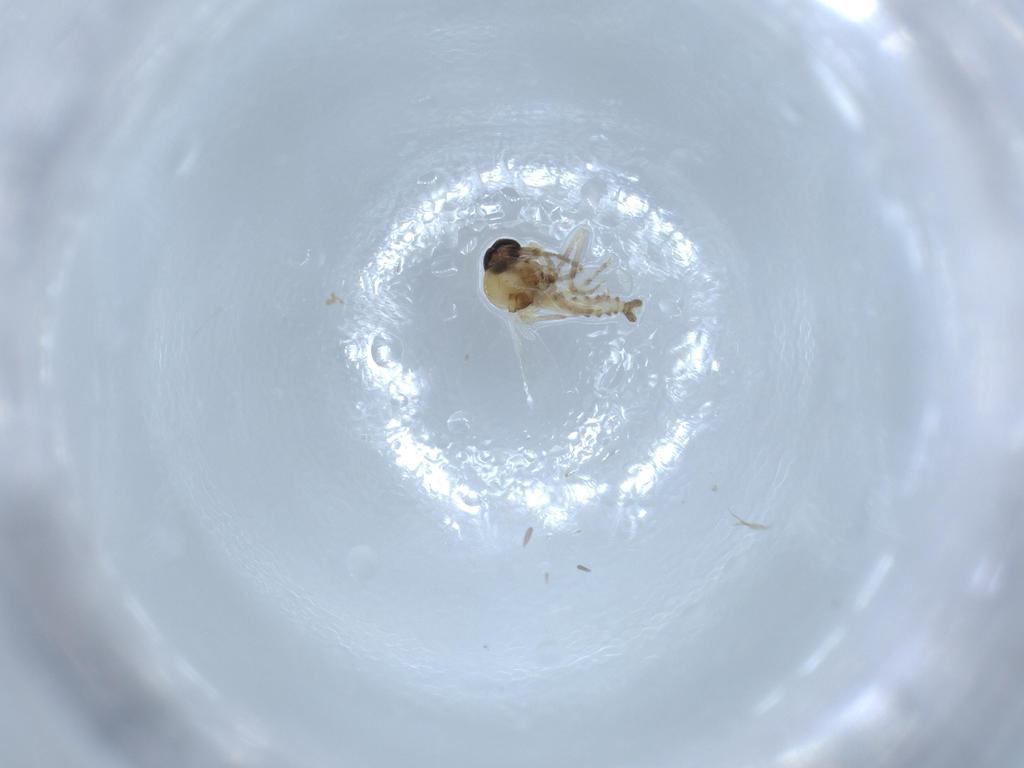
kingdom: Animalia
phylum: Arthropoda
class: Insecta
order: Diptera
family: Ceratopogonidae
